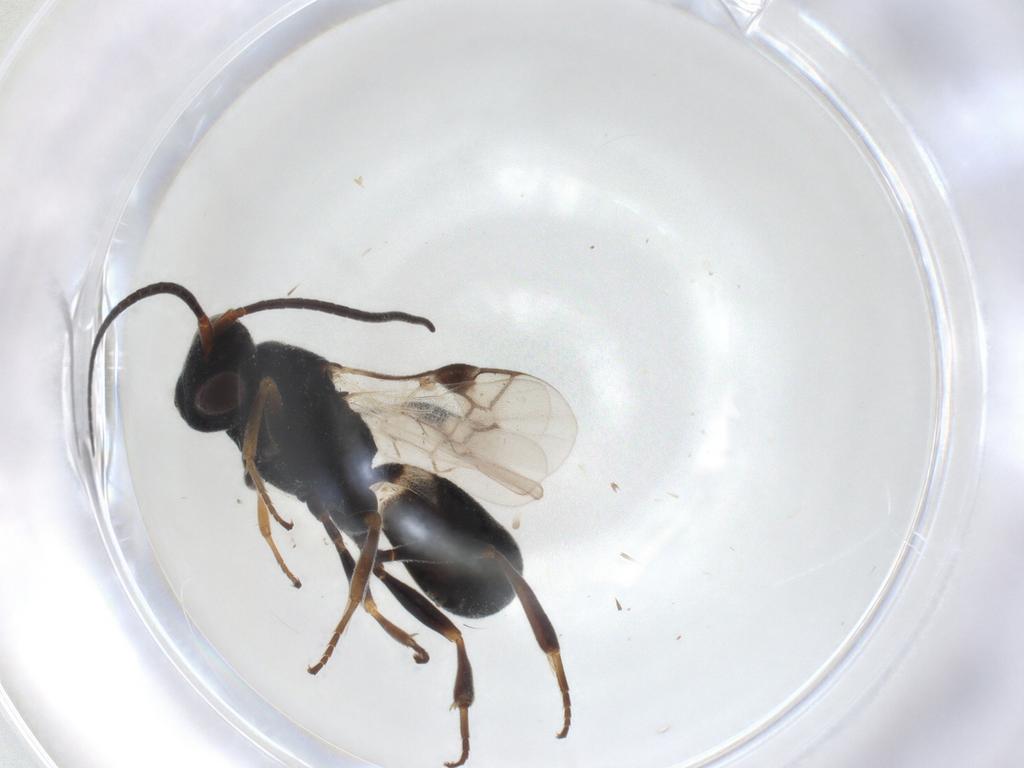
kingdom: Animalia
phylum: Arthropoda
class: Insecta
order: Hymenoptera
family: Braconidae
